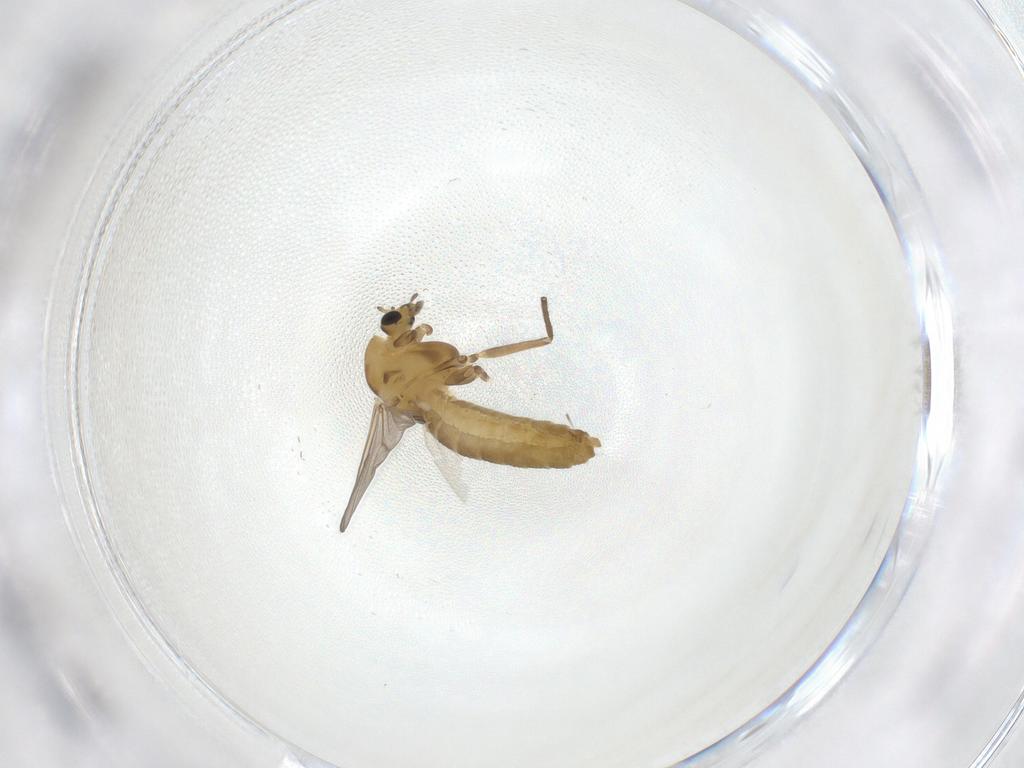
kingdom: Animalia
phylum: Arthropoda
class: Insecta
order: Diptera
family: Chironomidae
